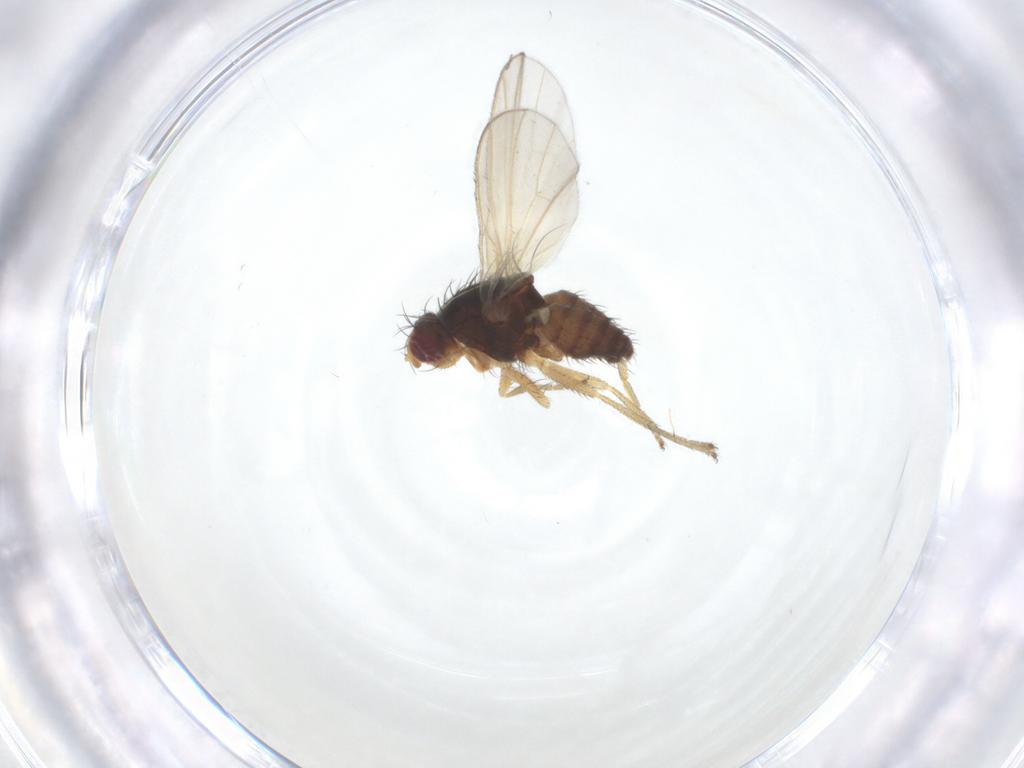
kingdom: Animalia
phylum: Arthropoda
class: Insecta
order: Diptera
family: Heleomyzidae
